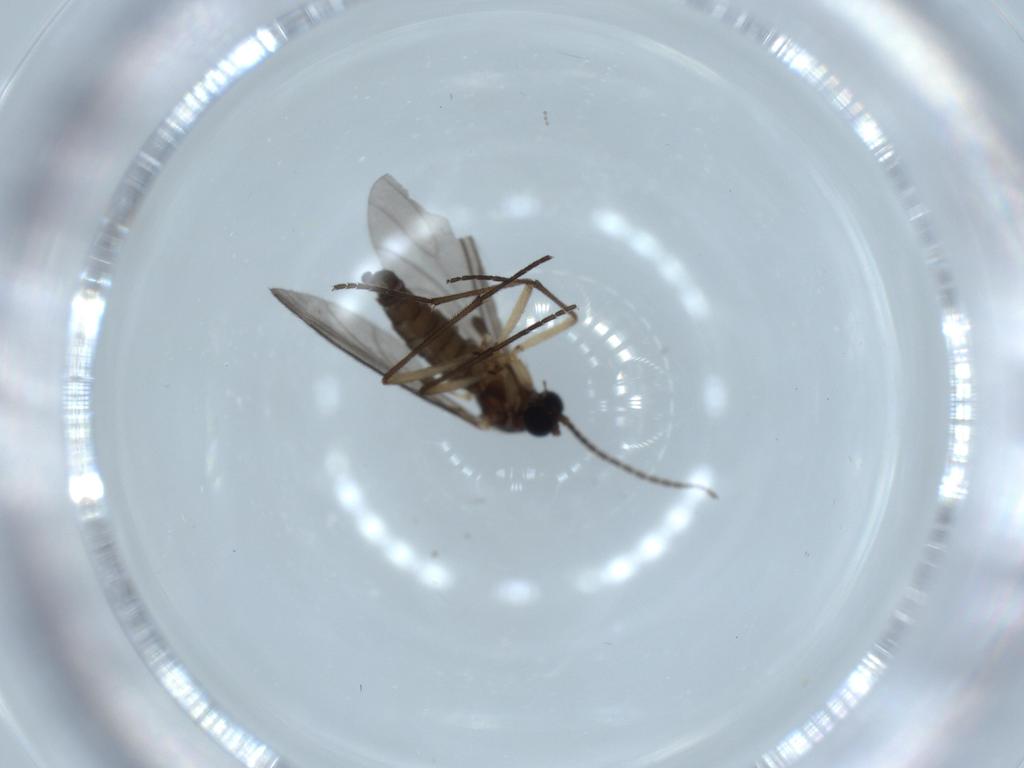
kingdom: Animalia
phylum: Arthropoda
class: Insecta
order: Diptera
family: Sciaridae
